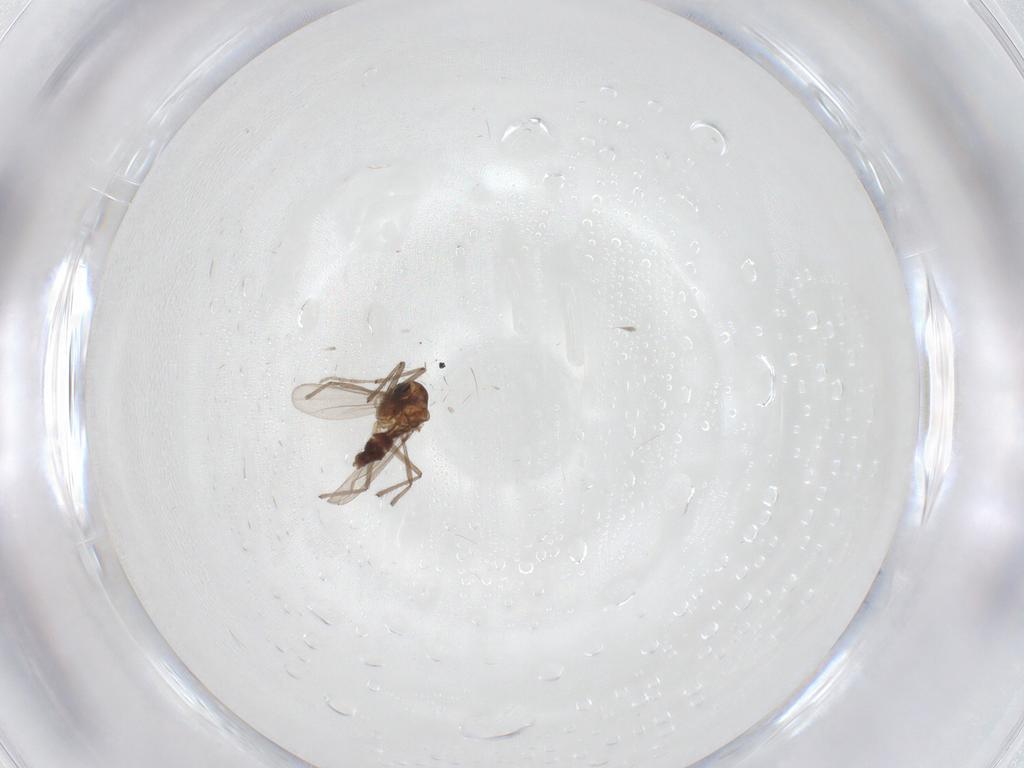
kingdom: Animalia
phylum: Arthropoda
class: Insecta
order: Diptera
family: Chironomidae
